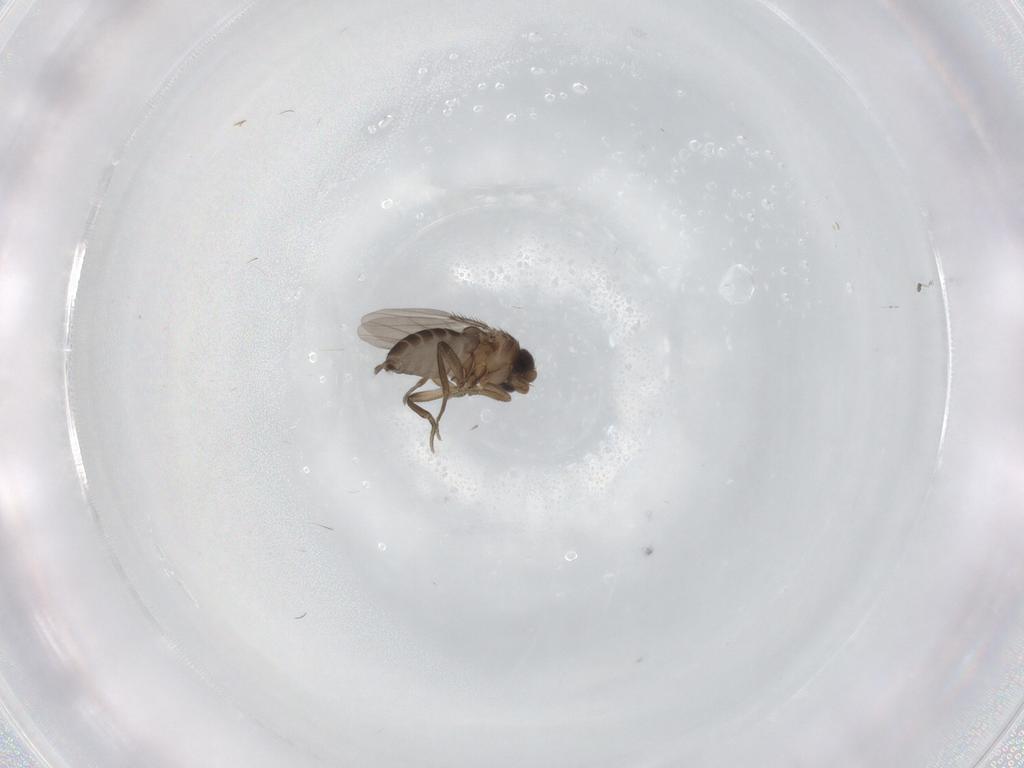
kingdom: Animalia
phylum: Arthropoda
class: Insecta
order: Diptera
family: Phoridae
